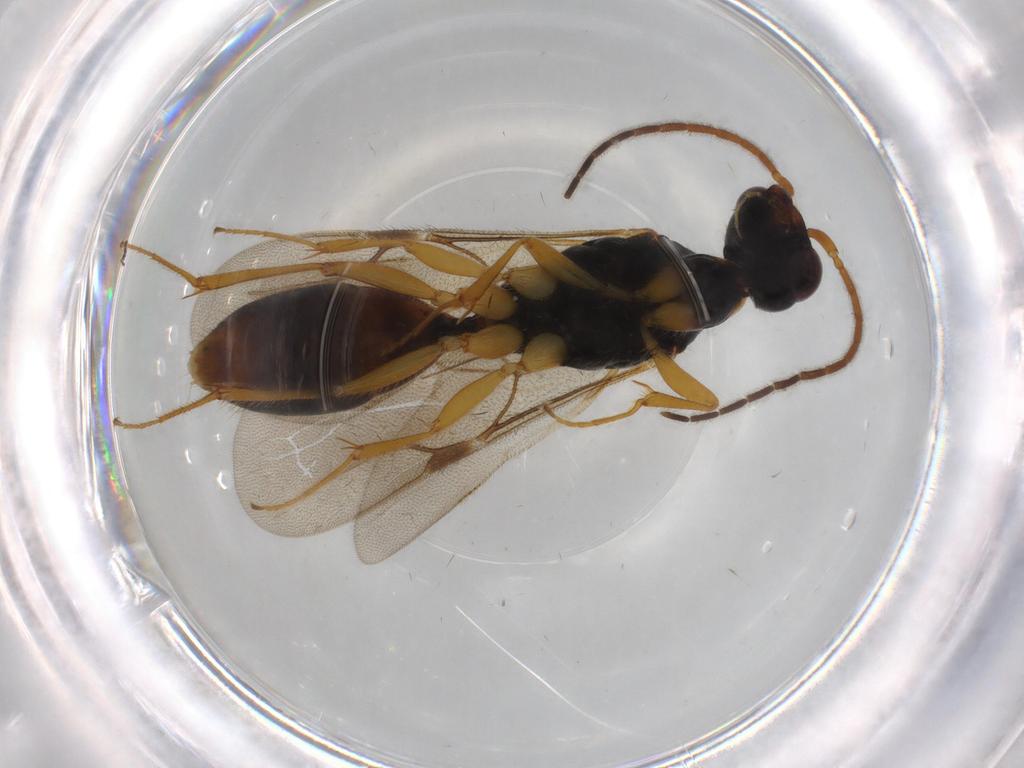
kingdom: Animalia
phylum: Arthropoda
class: Insecta
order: Hymenoptera
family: Bethylidae
